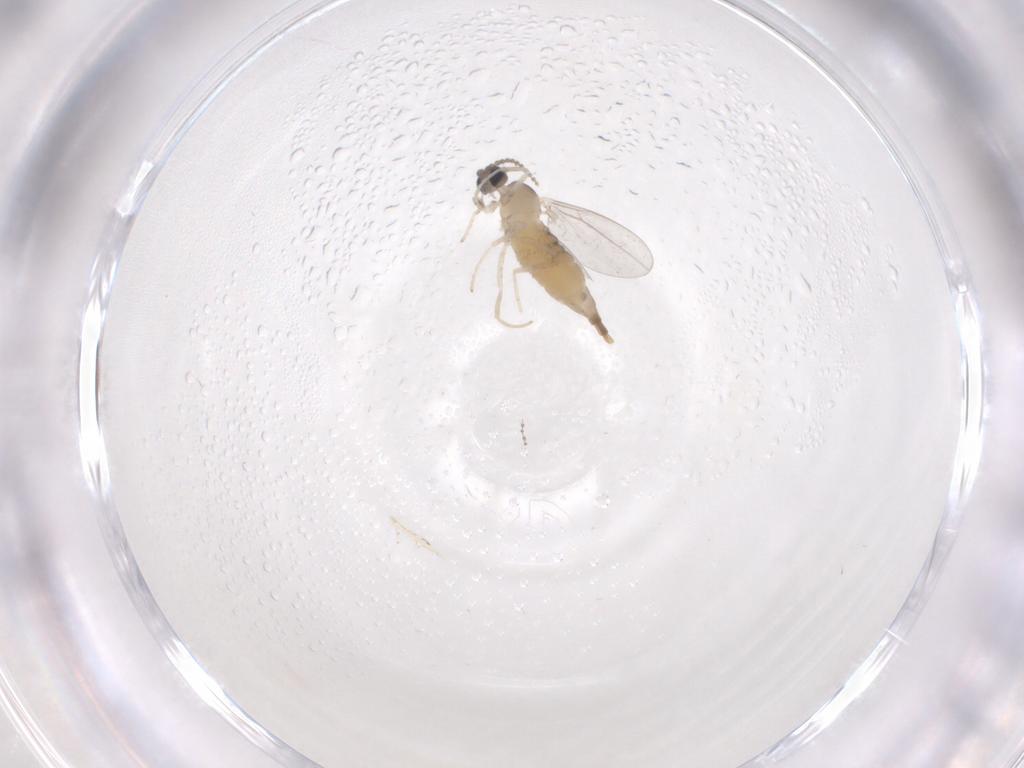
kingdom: Animalia
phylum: Arthropoda
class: Insecta
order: Diptera
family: Cecidomyiidae
